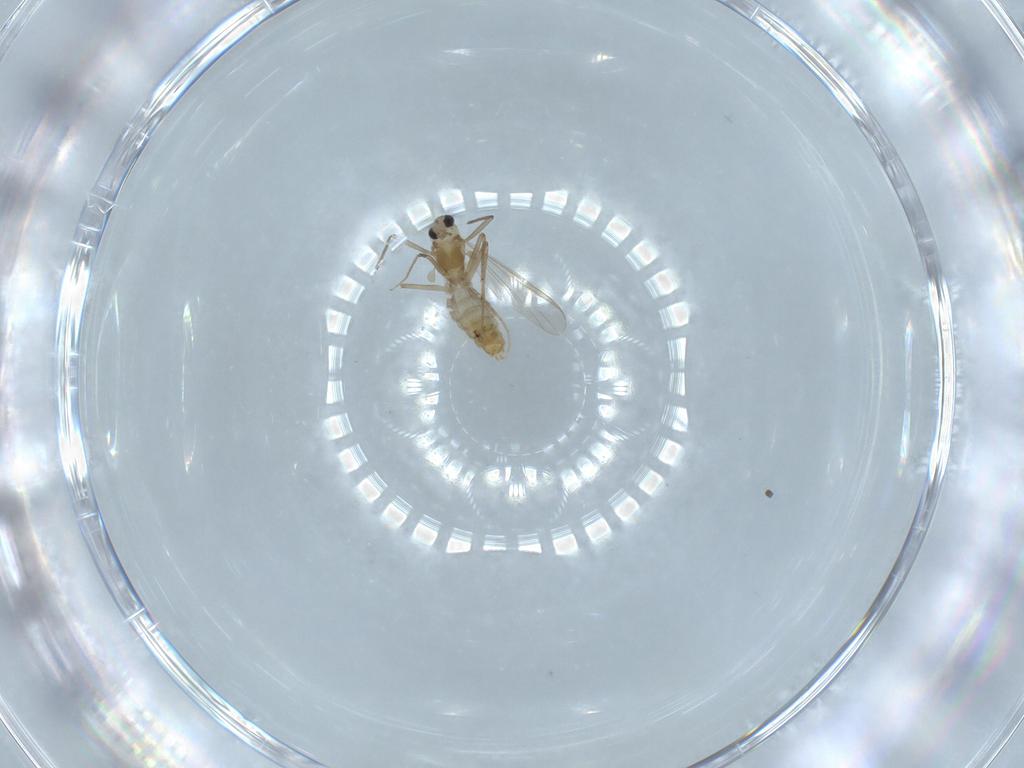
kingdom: Animalia
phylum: Arthropoda
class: Insecta
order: Diptera
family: Chironomidae
